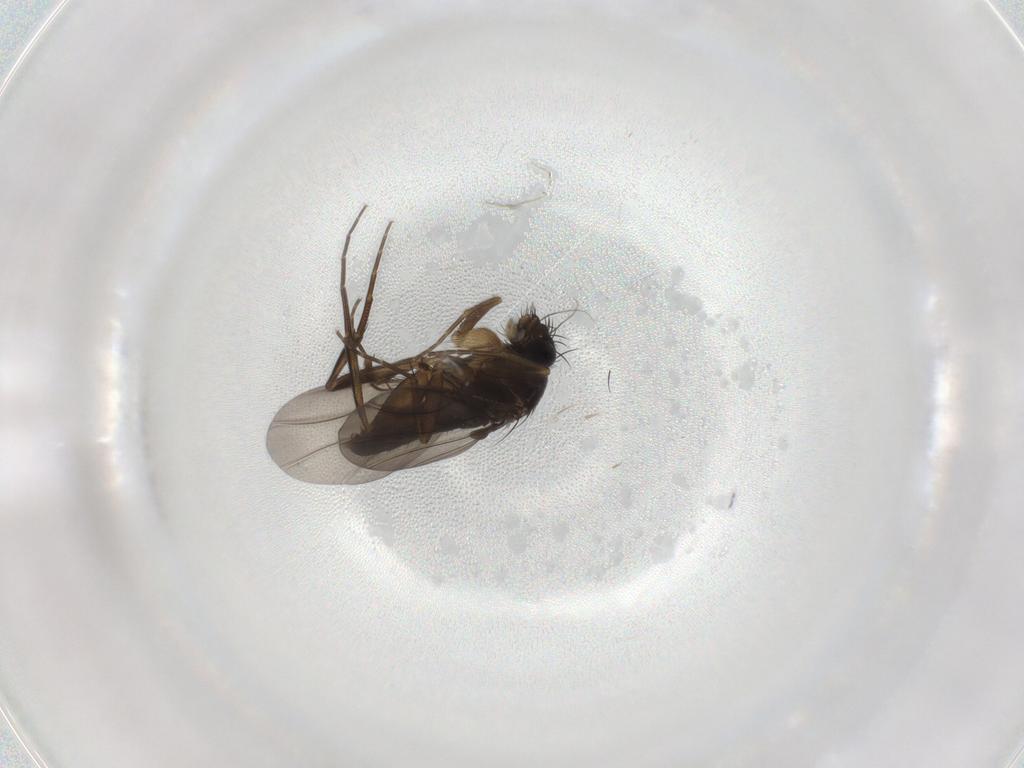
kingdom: Animalia
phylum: Arthropoda
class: Insecta
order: Diptera
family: Phoridae
